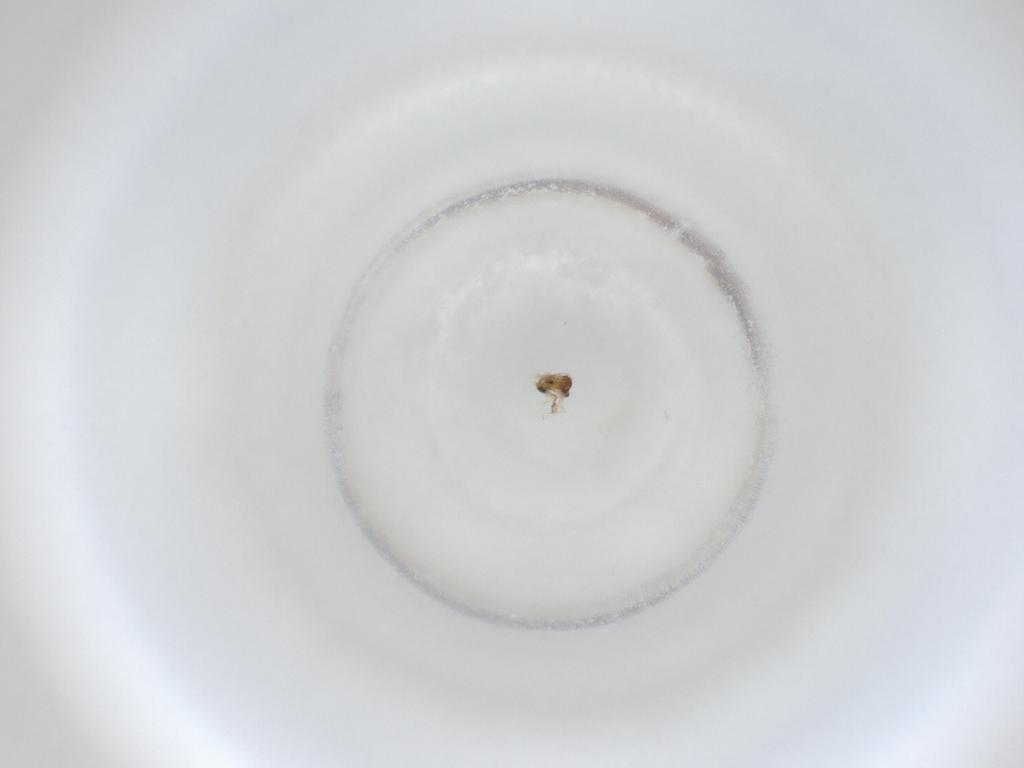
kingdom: Animalia
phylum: Arthropoda
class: Insecta
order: Diptera
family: Cecidomyiidae
